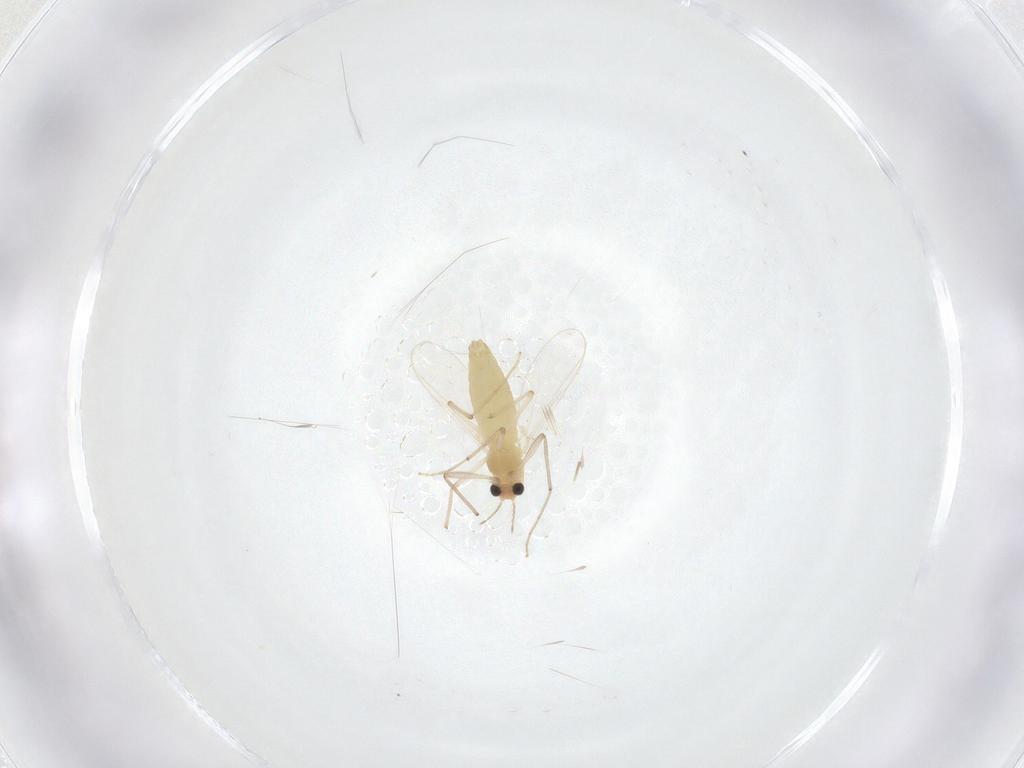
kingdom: Animalia
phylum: Arthropoda
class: Insecta
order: Diptera
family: Chironomidae
